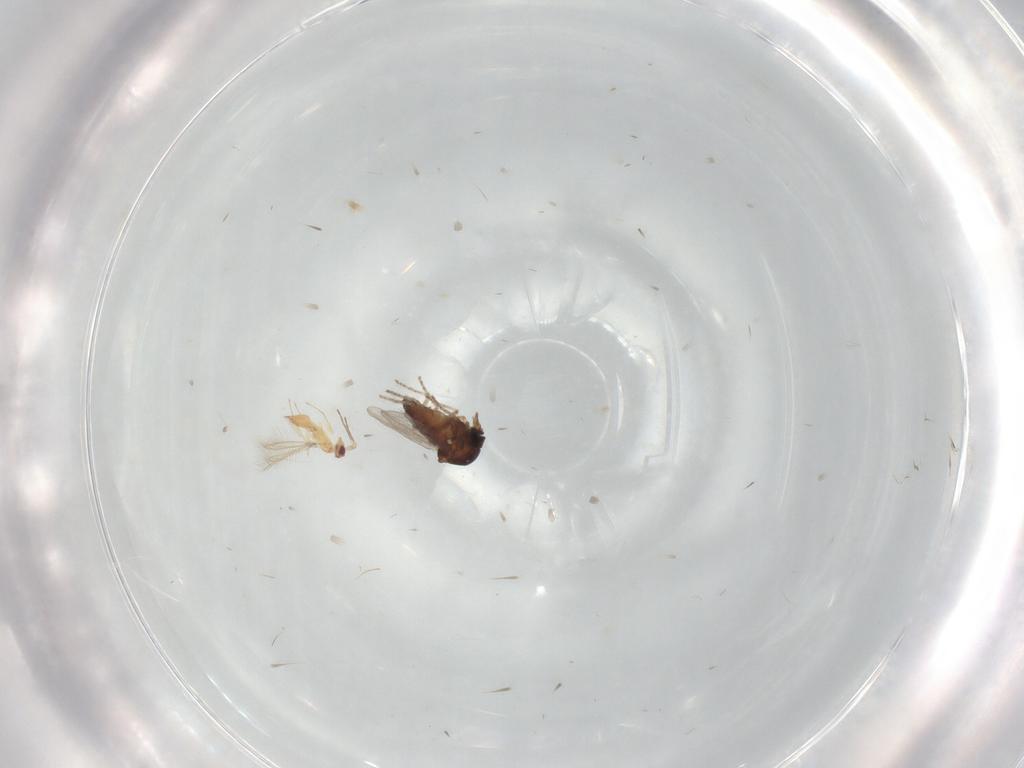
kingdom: Animalia
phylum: Arthropoda
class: Insecta
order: Diptera
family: Ceratopogonidae
